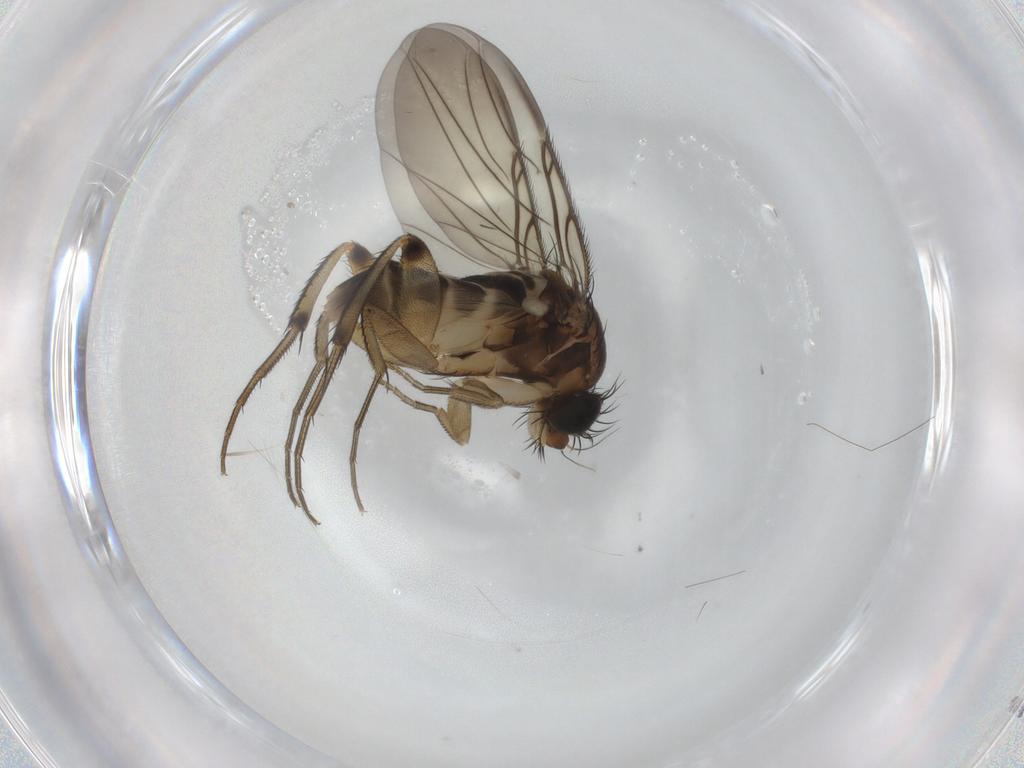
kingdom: Animalia
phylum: Arthropoda
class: Insecta
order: Diptera
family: Phoridae
